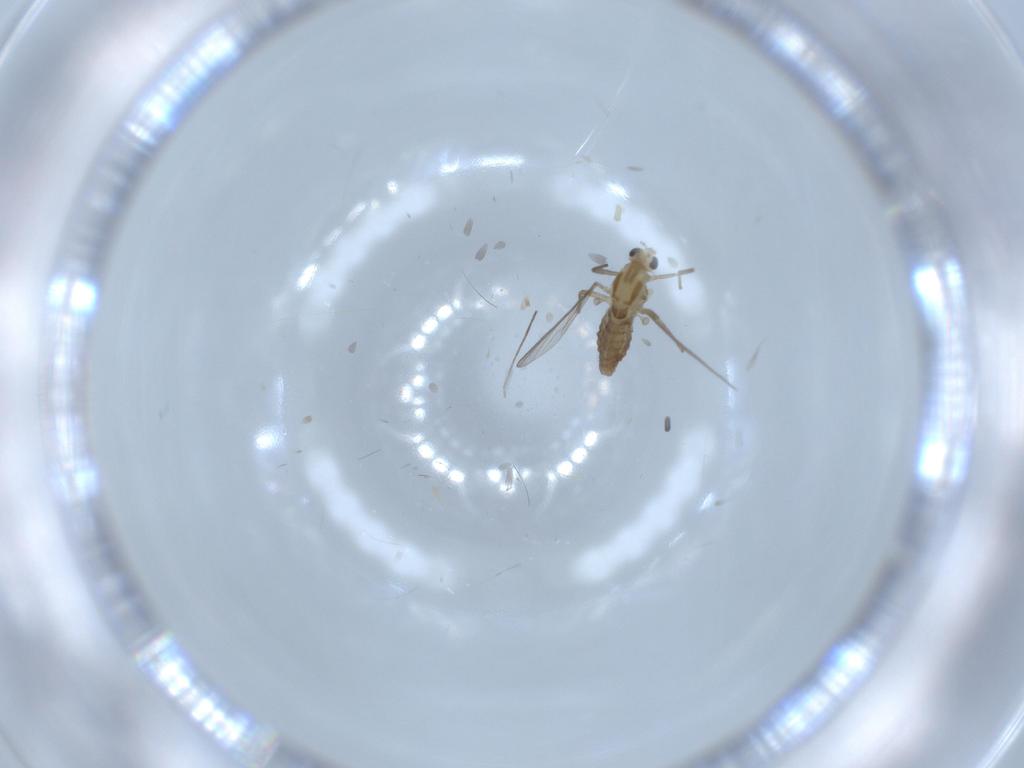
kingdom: Animalia
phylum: Arthropoda
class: Insecta
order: Diptera
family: Chironomidae
